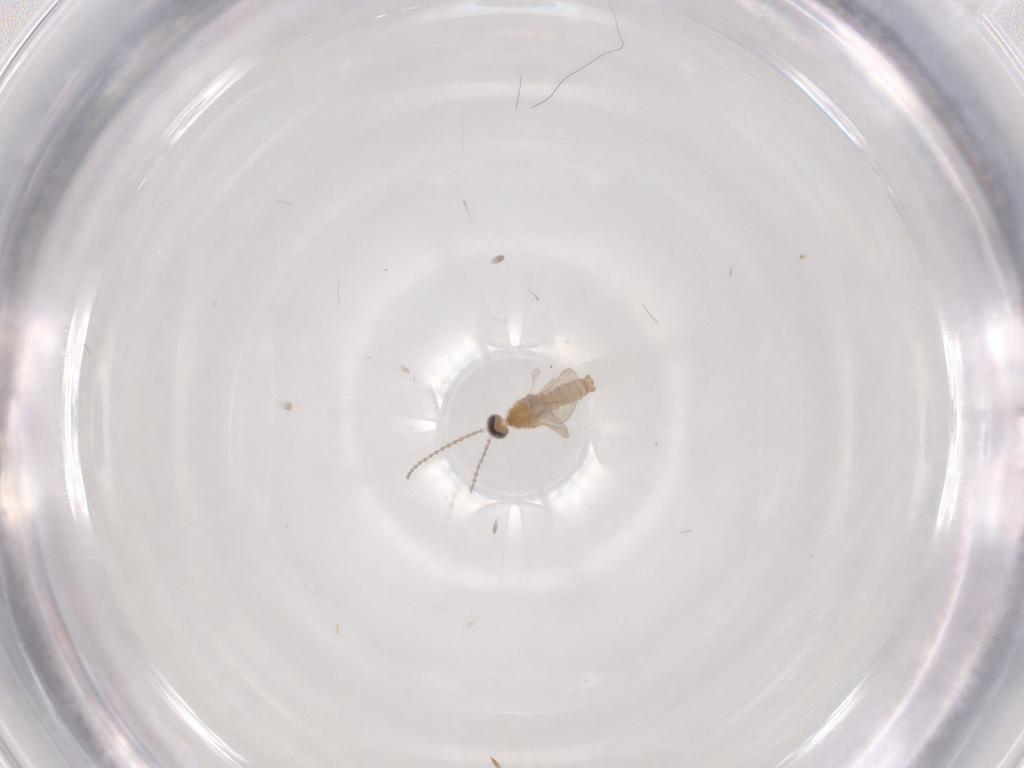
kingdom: Animalia
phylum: Arthropoda
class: Insecta
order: Diptera
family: Cecidomyiidae
